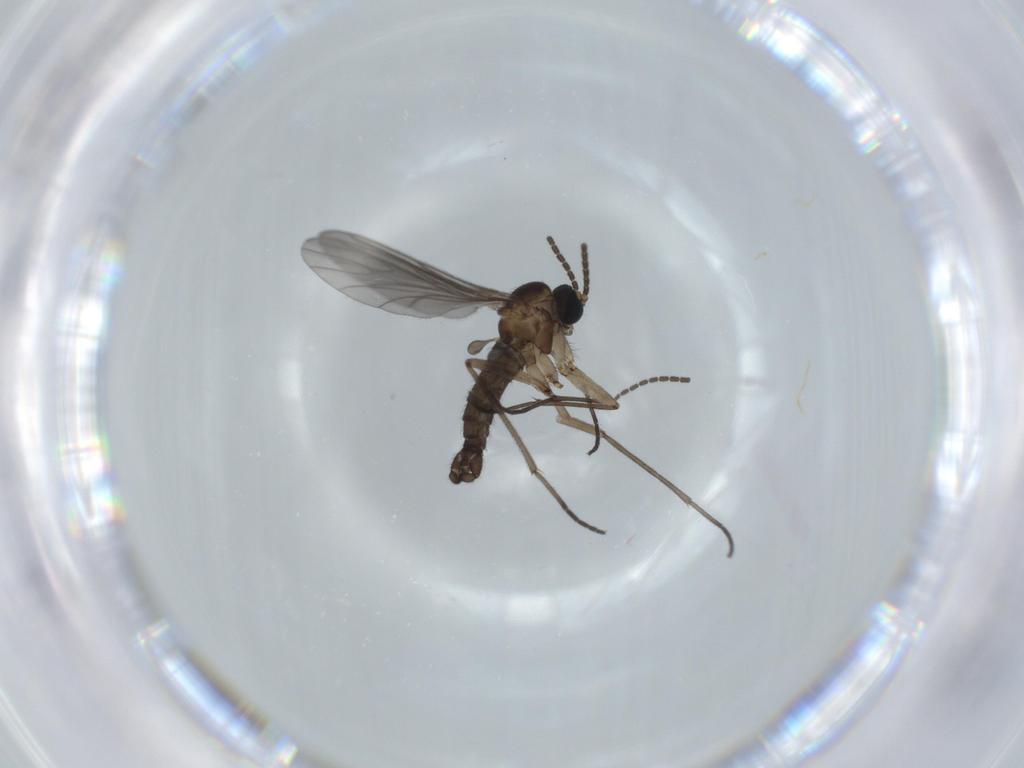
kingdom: Animalia
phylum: Arthropoda
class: Insecta
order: Diptera
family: Sciaridae
